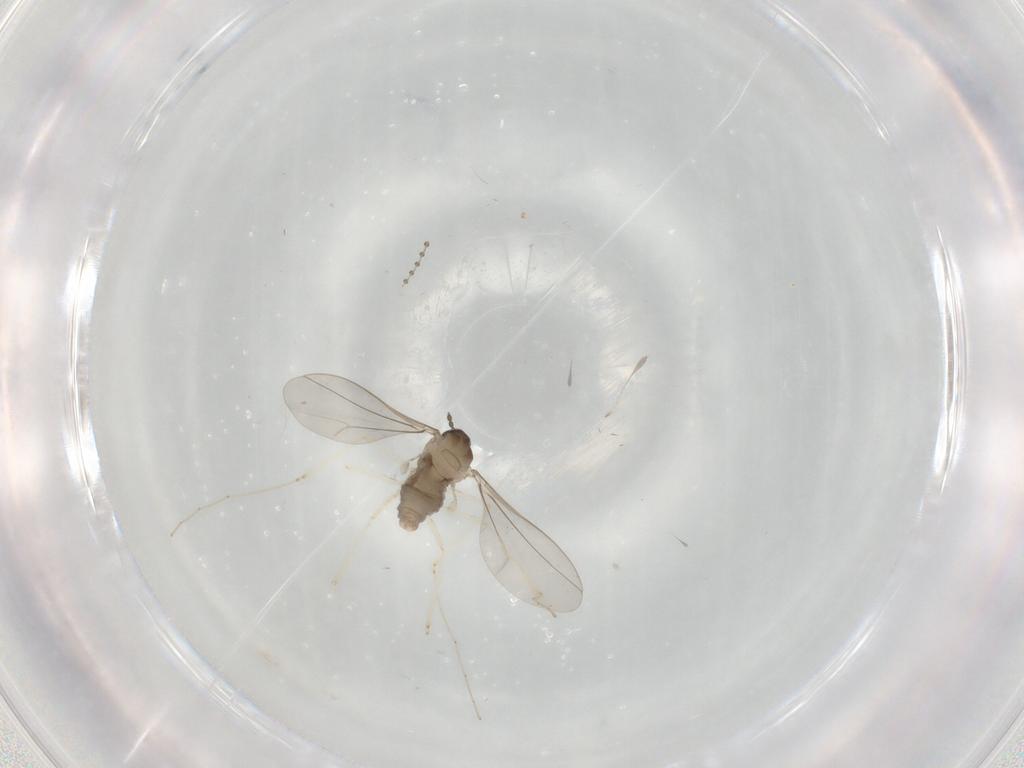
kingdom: Animalia
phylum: Arthropoda
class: Insecta
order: Diptera
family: Cecidomyiidae
